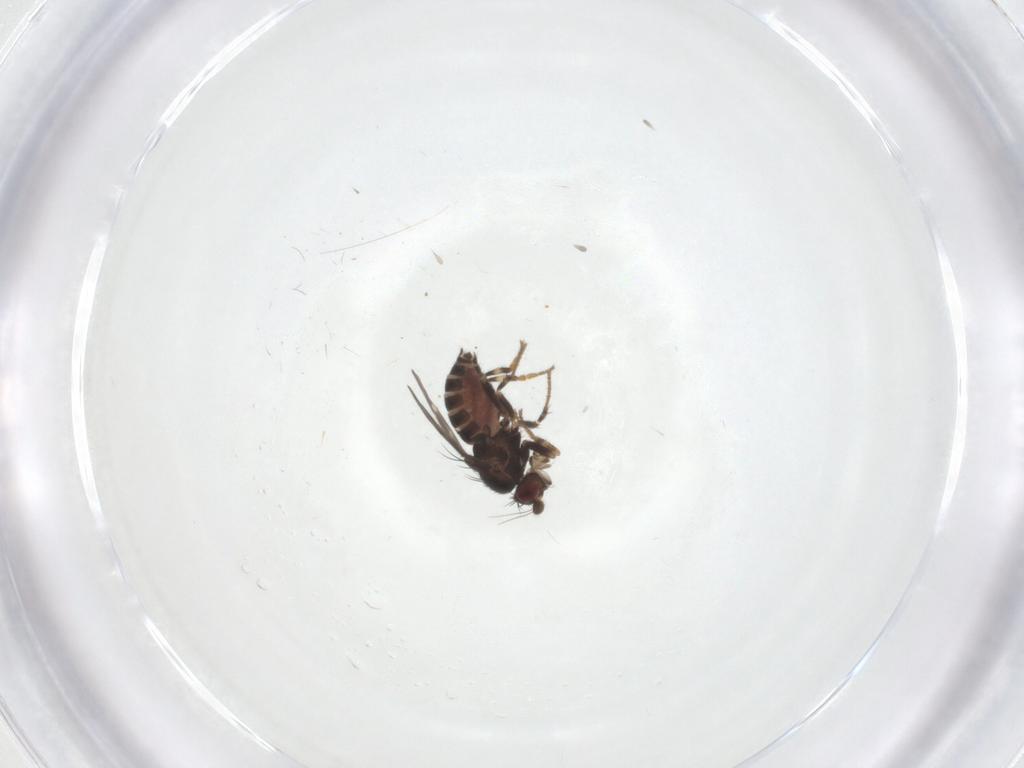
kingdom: Animalia
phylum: Arthropoda
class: Insecta
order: Diptera
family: Sphaeroceridae
